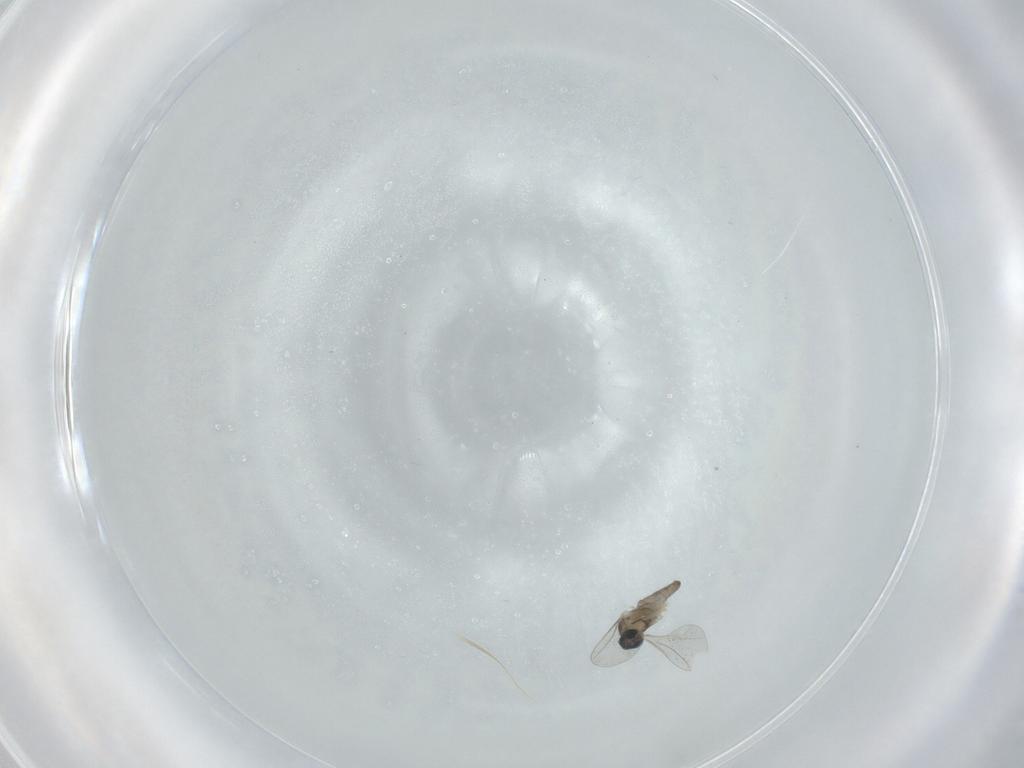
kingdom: Animalia
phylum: Arthropoda
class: Insecta
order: Diptera
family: Cecidomyiidae
